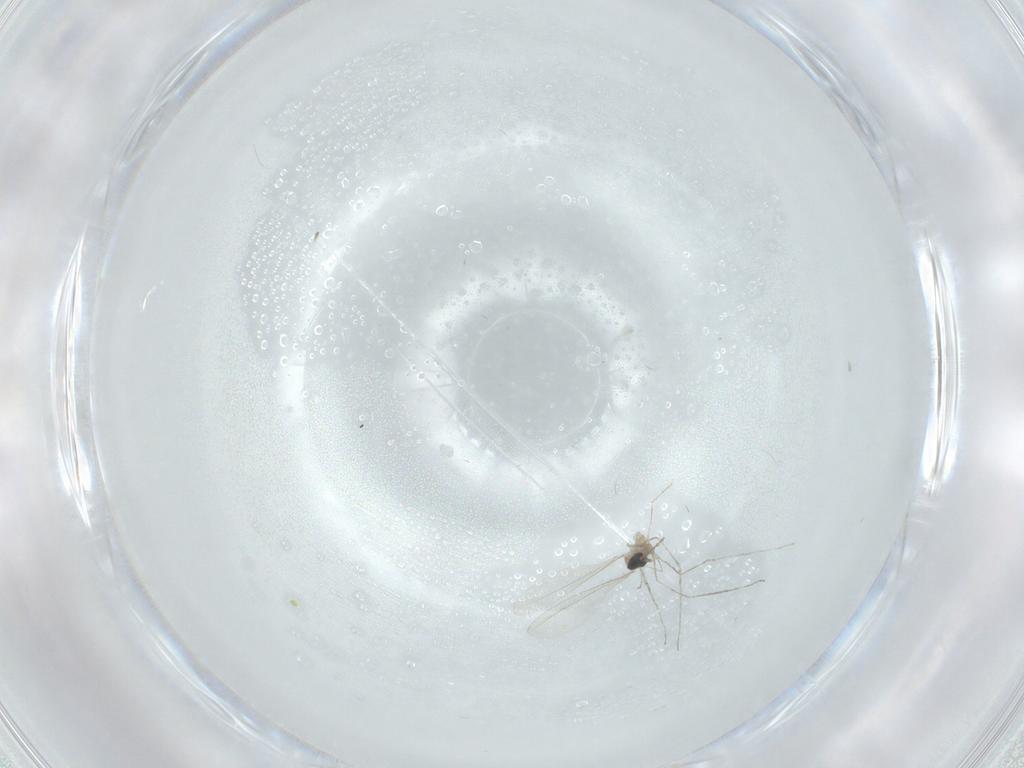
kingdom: Animalia
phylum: Arthropoda
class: Insecta
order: Diptera
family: Cecidomyiidae
